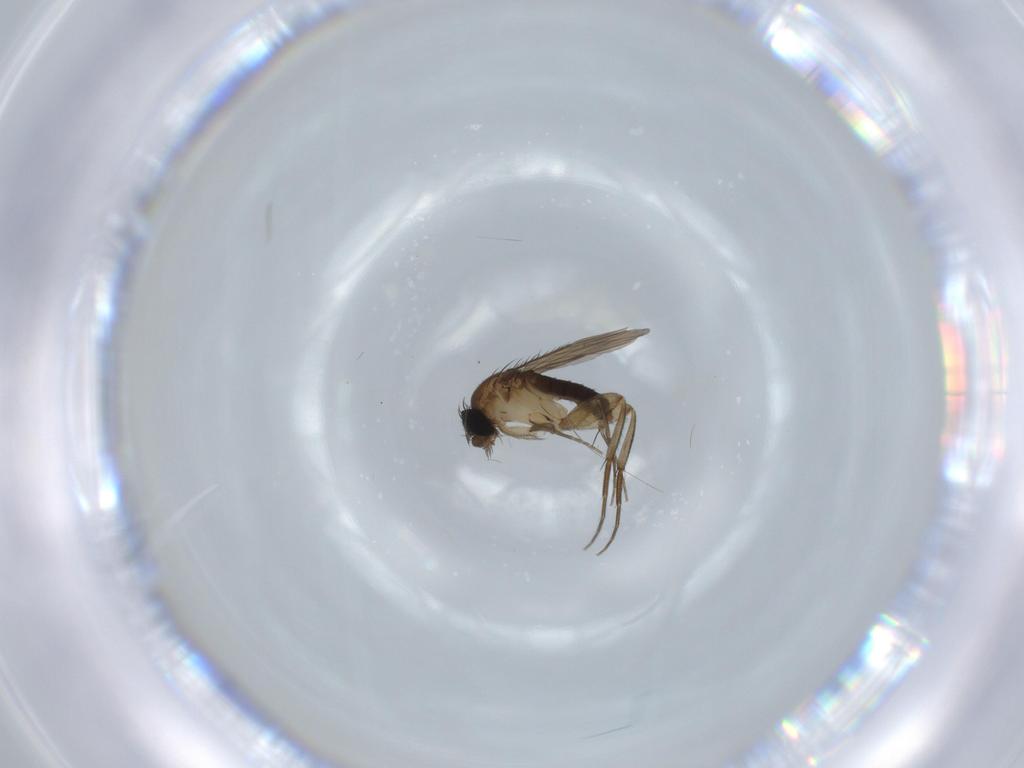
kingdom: Animalia
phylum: Arthropoda
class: Insecta
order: Diptera
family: Phoridae
